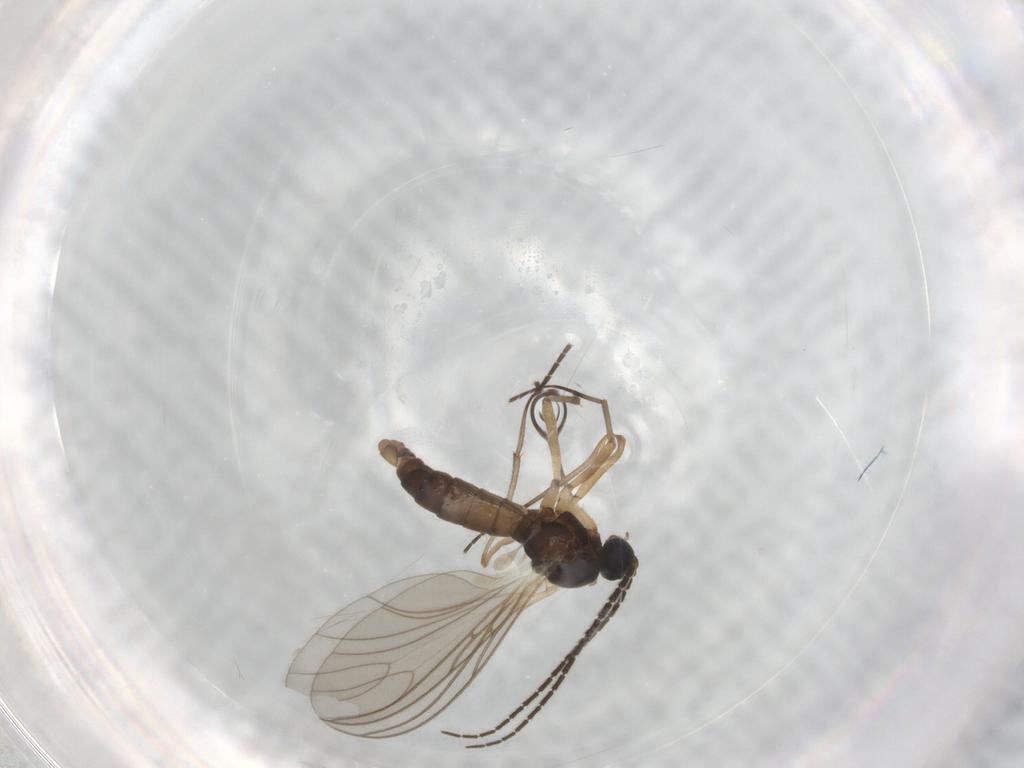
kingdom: Animalia
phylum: Arthropoda
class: Insecta
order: Diptera
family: Sciaridae
